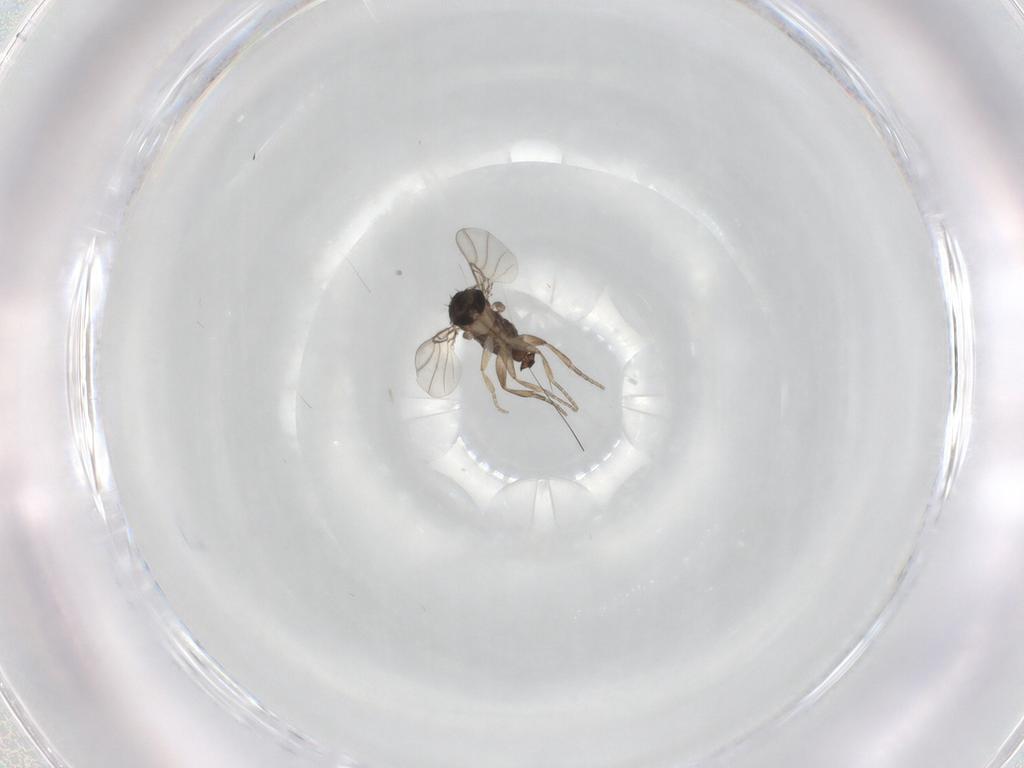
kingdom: Animalia
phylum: Arthropoda
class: Insecta
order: Diptera
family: Phoridae
